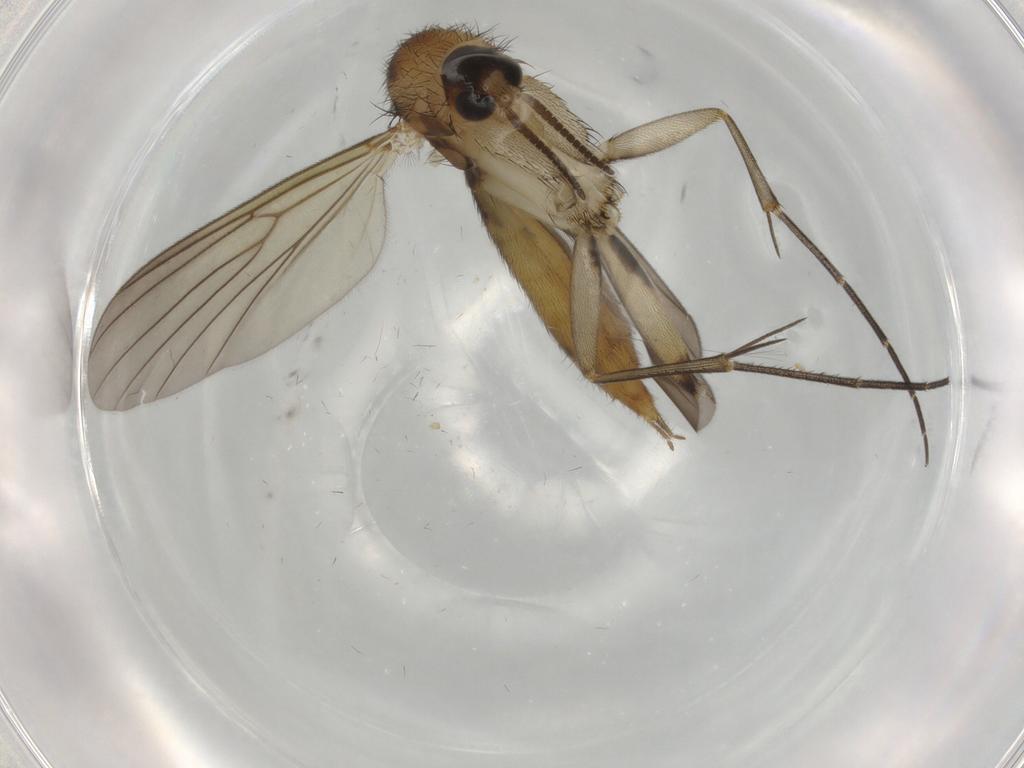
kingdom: Animalia
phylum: Arthropoda
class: Insecta
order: Diptera
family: Mycetophilidae
